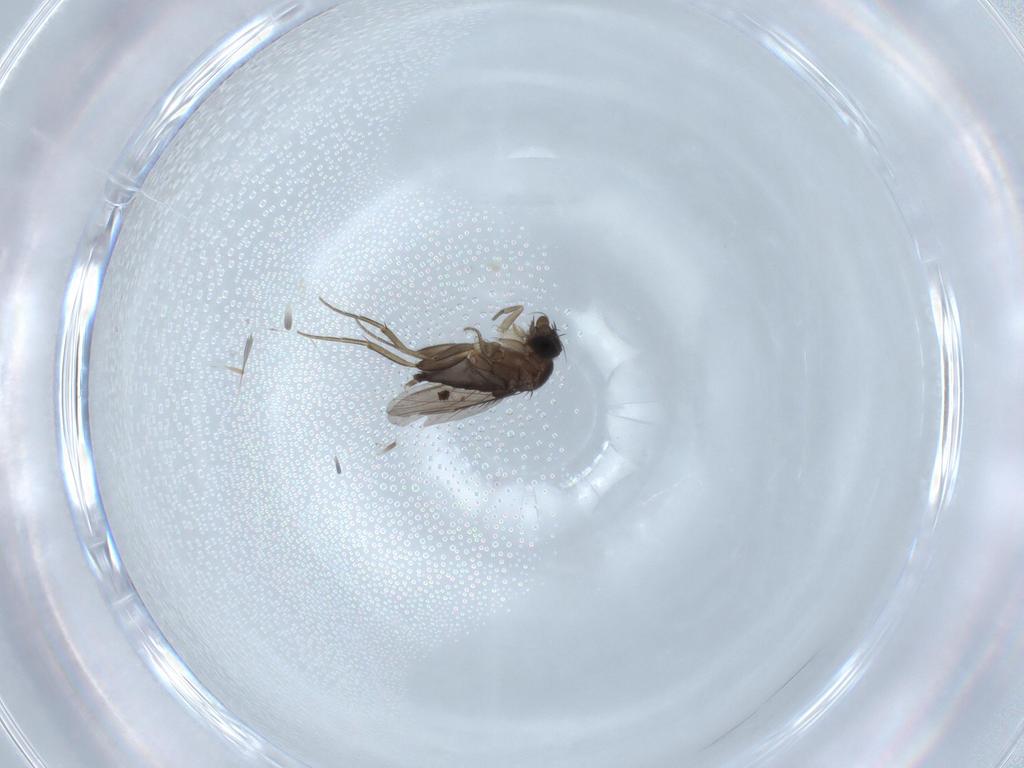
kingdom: Animalia
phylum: Arthropoda
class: Insecta
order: Diptera
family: Phoridae
